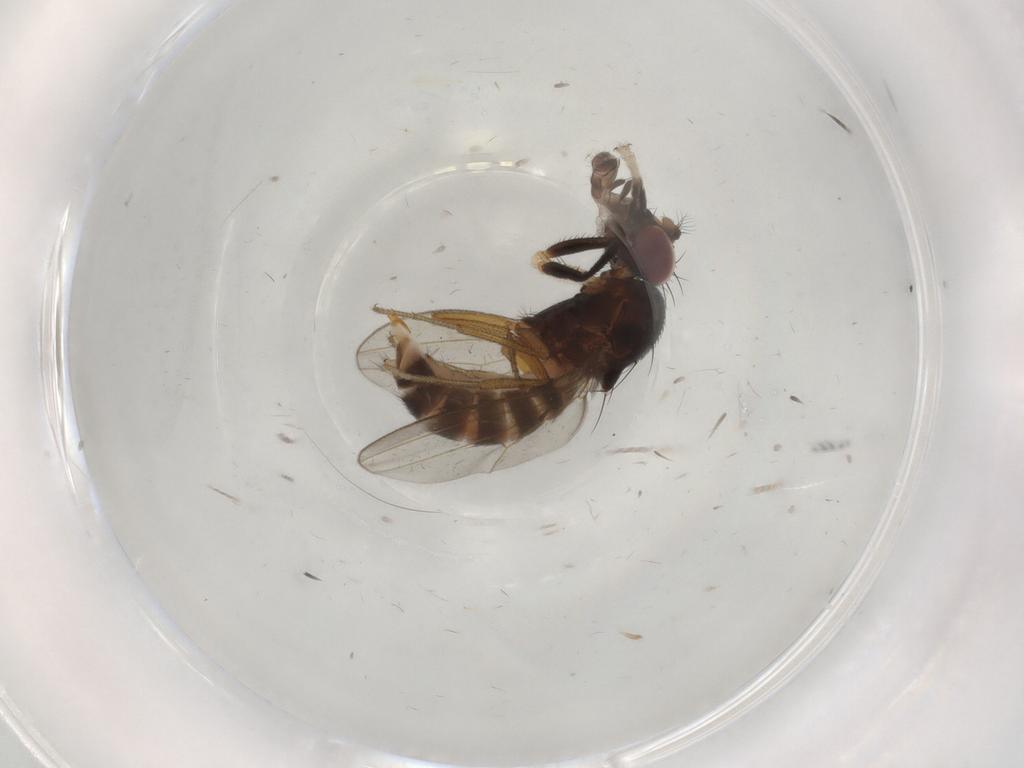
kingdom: Animalia
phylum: Arthropoda
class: Insecta
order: Diptera
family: Drosophilidae
